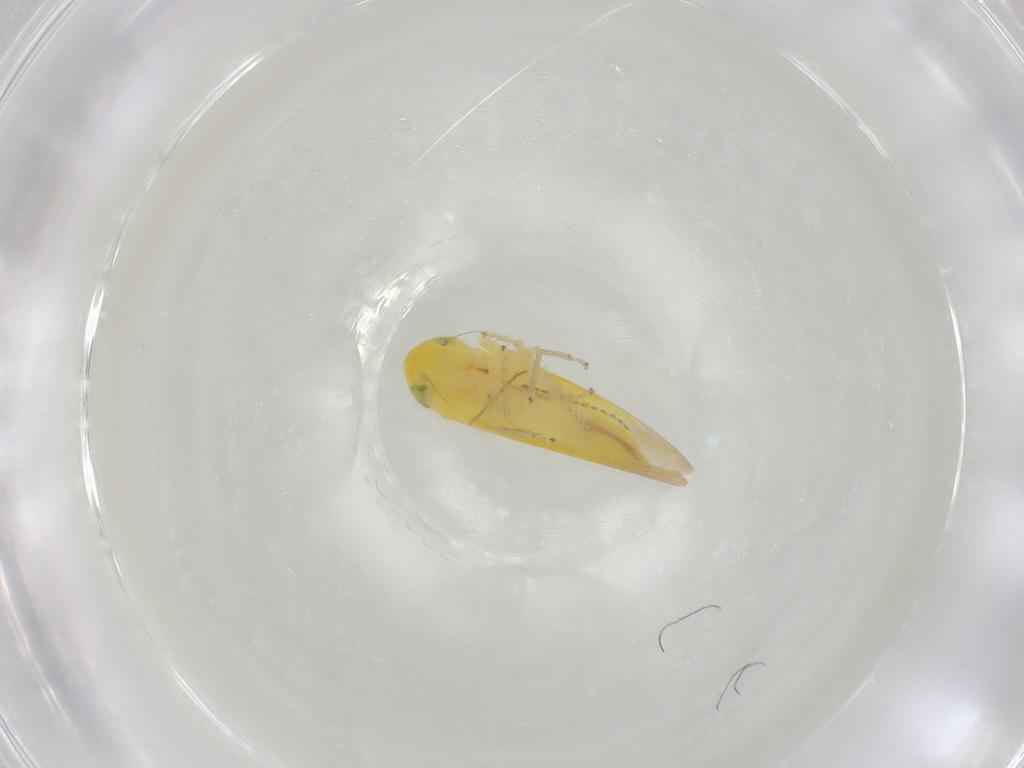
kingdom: Animalia
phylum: Arthropoda
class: Insecta
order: Hemiptera
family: Cicadellidae
